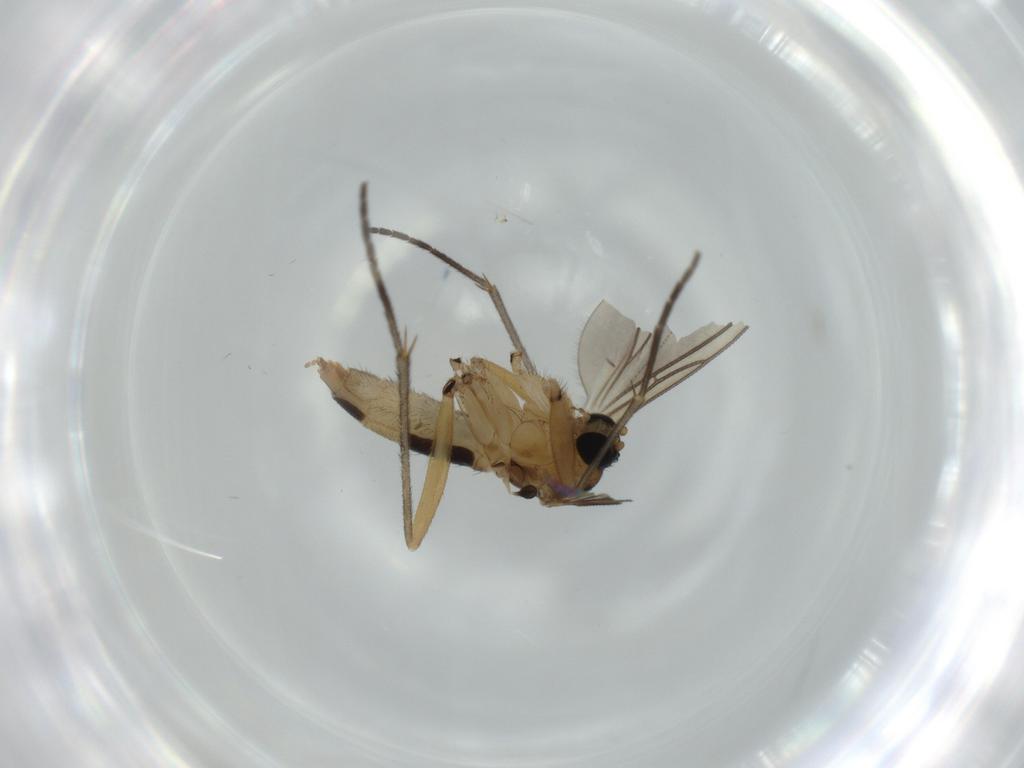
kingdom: Animalia
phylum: Arthropoda
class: Insecta
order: Diptera
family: Sciaridae
